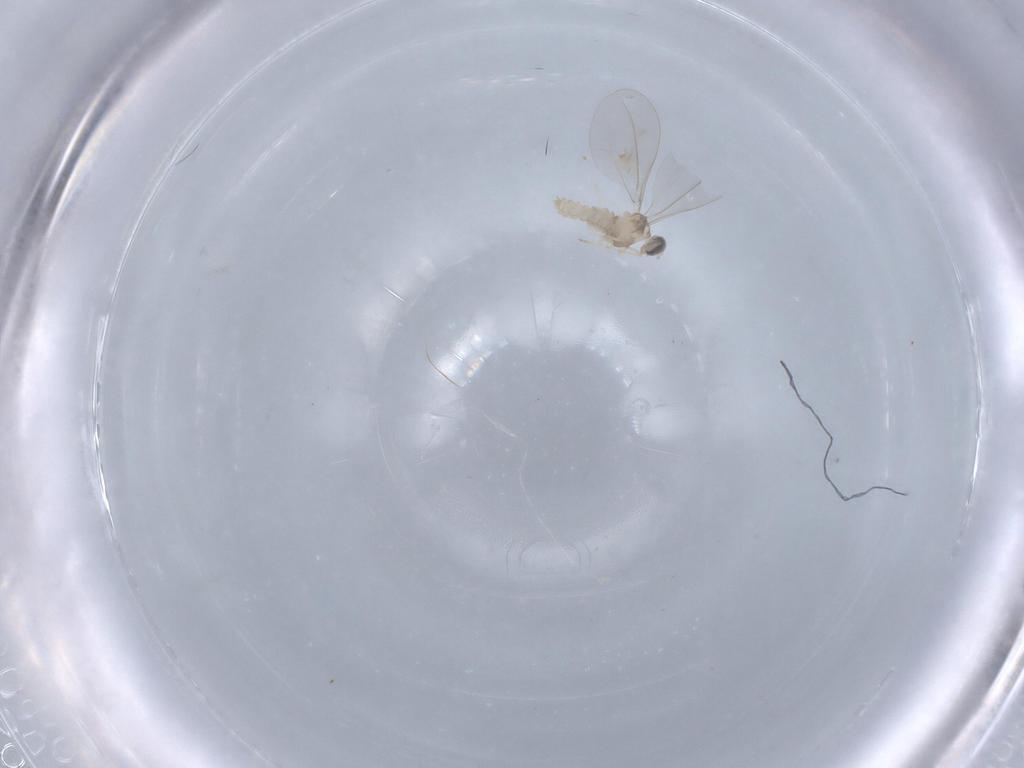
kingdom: Animalia
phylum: Arthropoda
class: Insecta
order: Diptera
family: Cecidomyiidae
